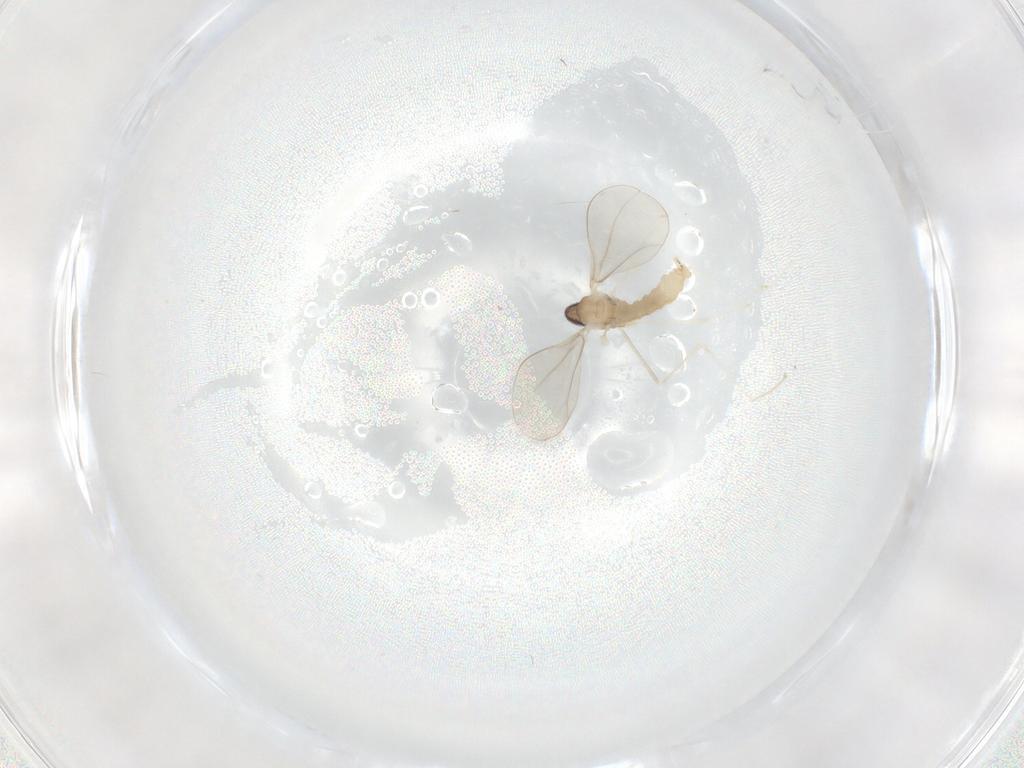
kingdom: Animalia
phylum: Arthropoda
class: Insecta
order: Diptera
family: Cecidomyiidae
